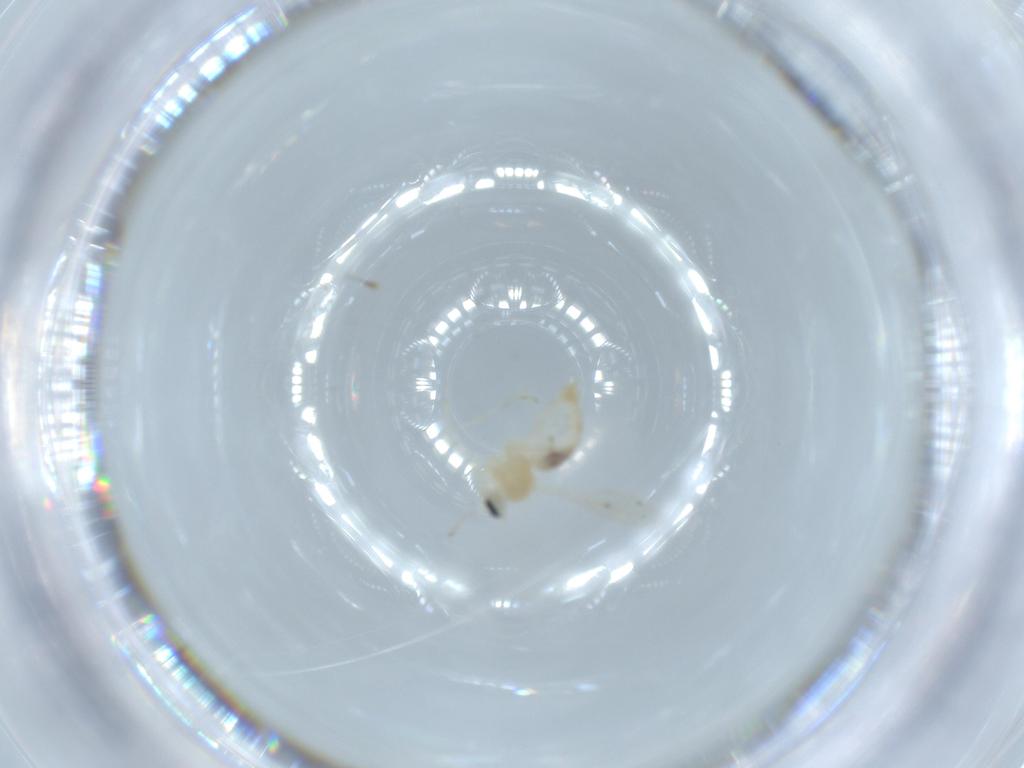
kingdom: Animalia
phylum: Arthropoda
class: Insecta
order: Diptera
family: Cecidomyiidae
